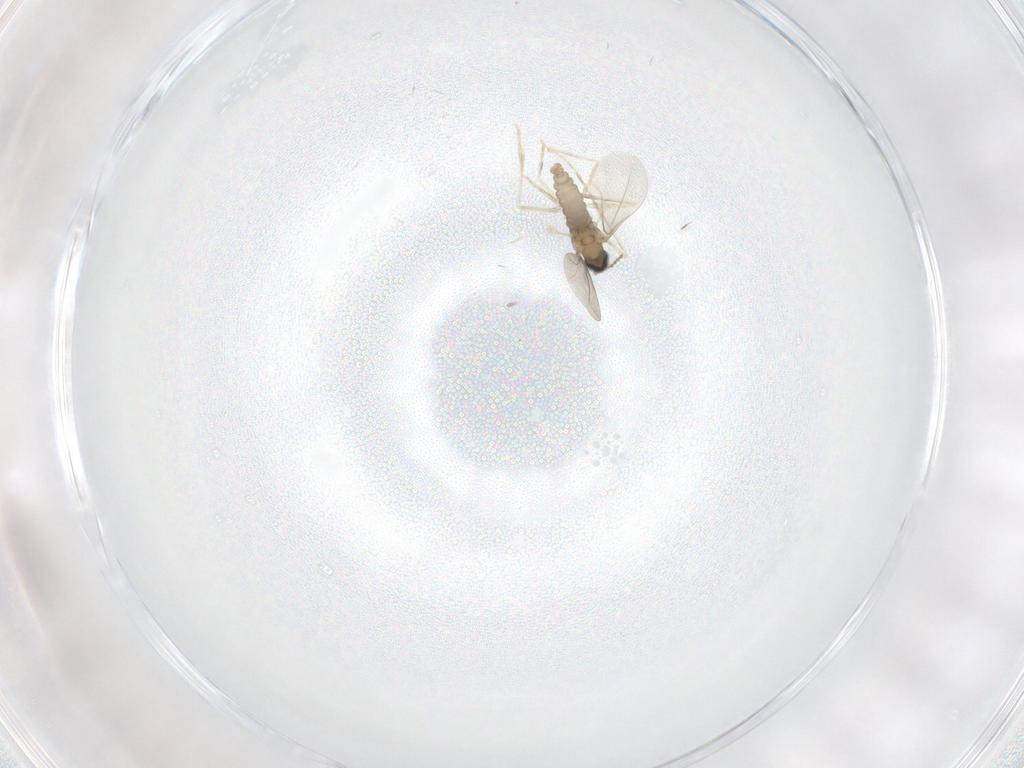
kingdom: Animalia
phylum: Arthropoda
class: Insecta
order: Diptera
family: Cecidomyiidae
